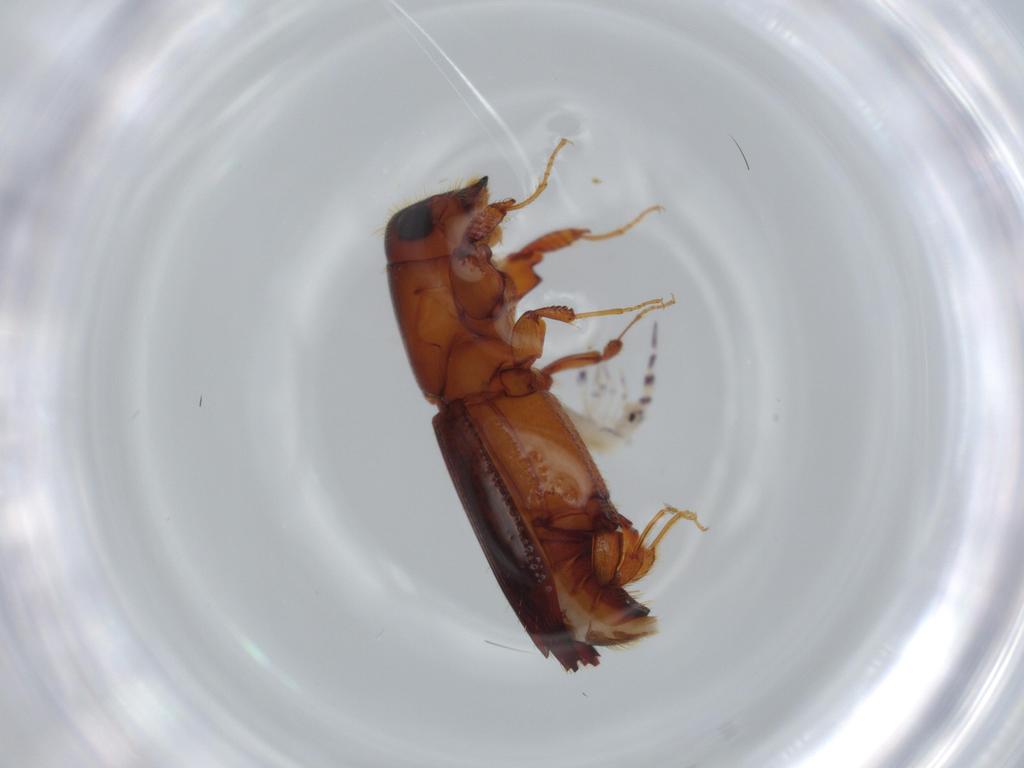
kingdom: Animalia
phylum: Arthropoda
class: Insecta
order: Coleoptera
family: Curculionidae
